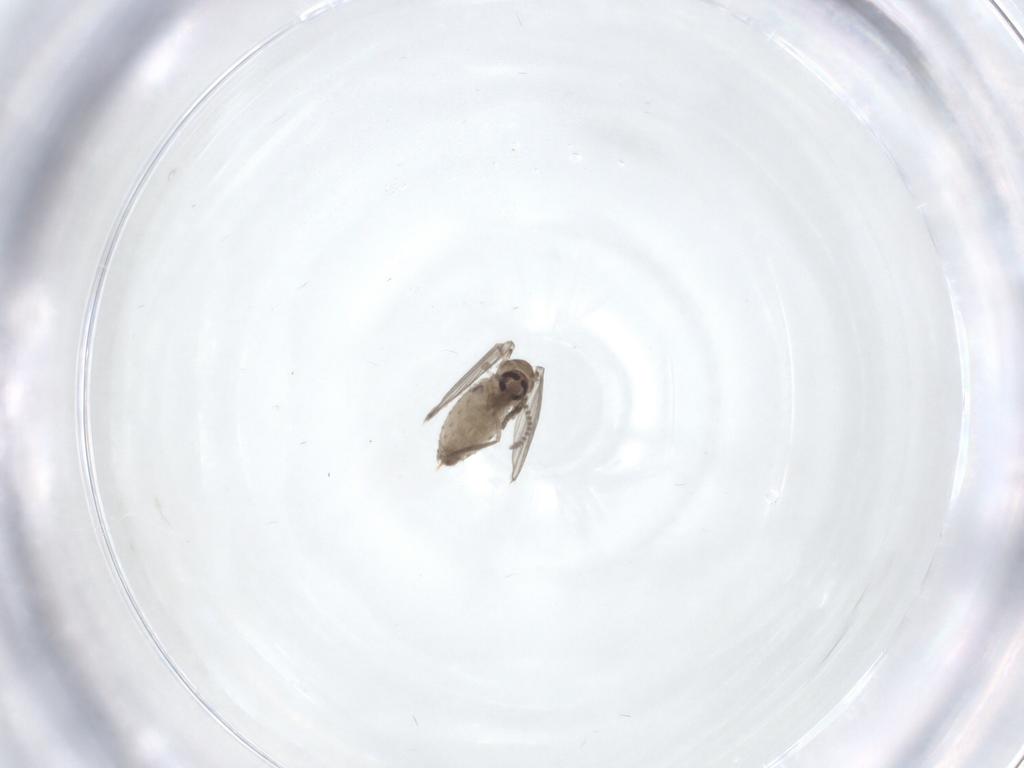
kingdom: Animalia
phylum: Arthropoda
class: Insecta
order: Diptera
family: Psychodidae
